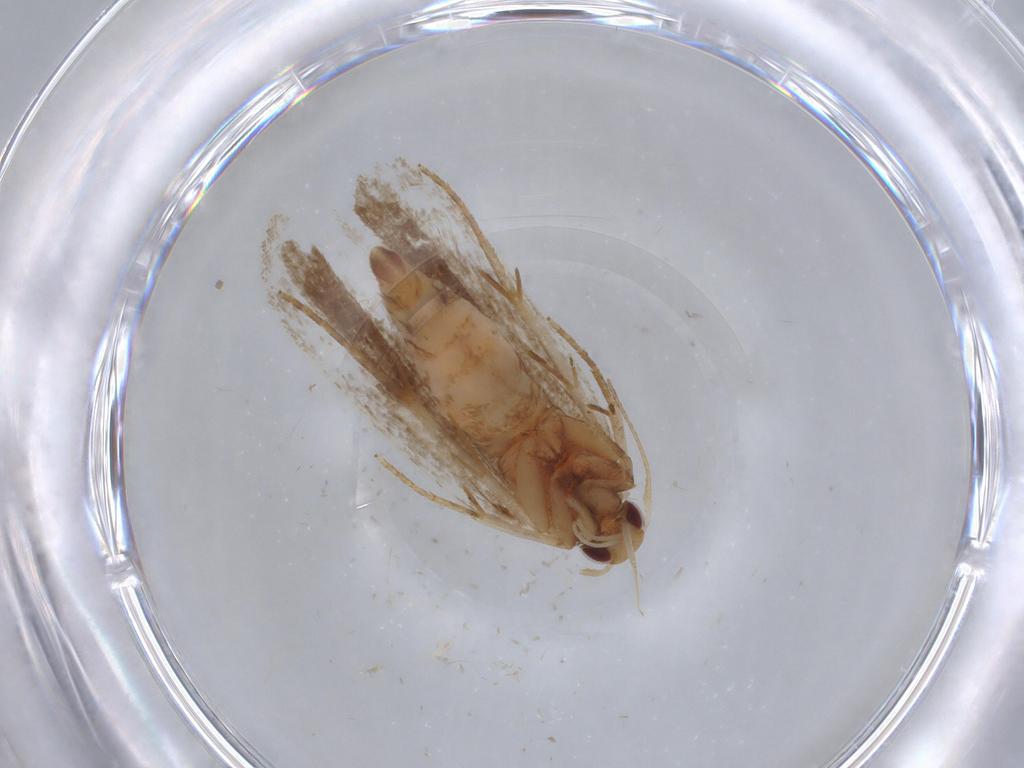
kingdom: Animalia
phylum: Arthropoda
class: Insecta
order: Lepidoptera
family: Gelechiidae
